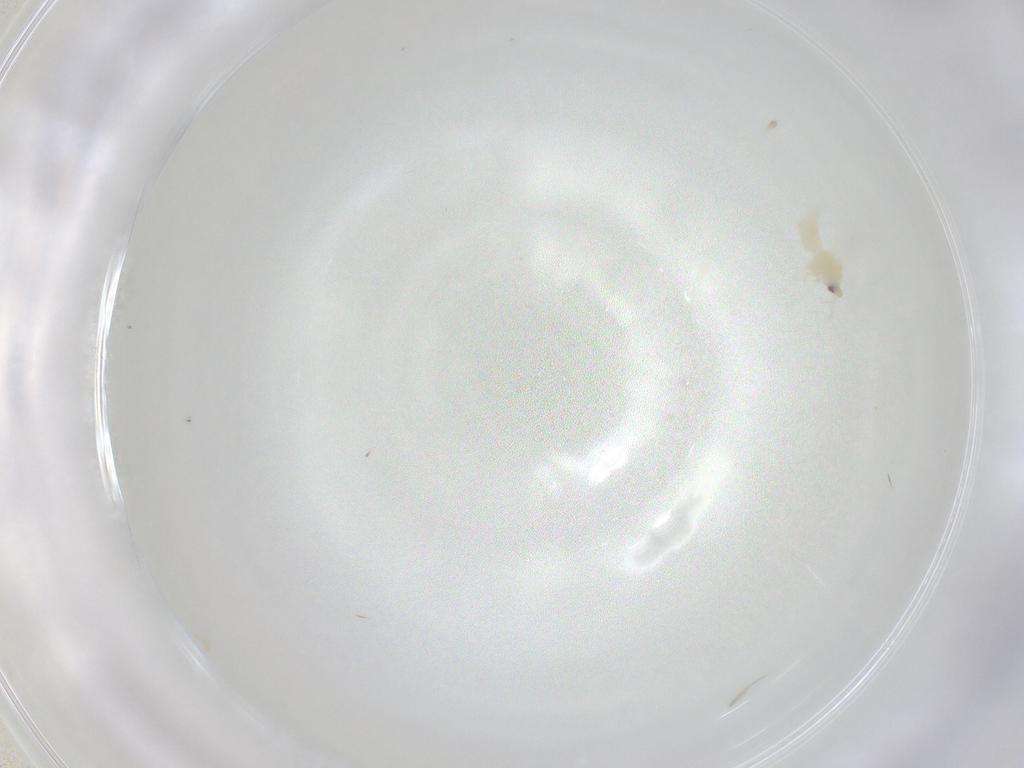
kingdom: Animalia
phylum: Arthropoda
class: Insecta
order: Hemiptera
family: Aleyrodidae
